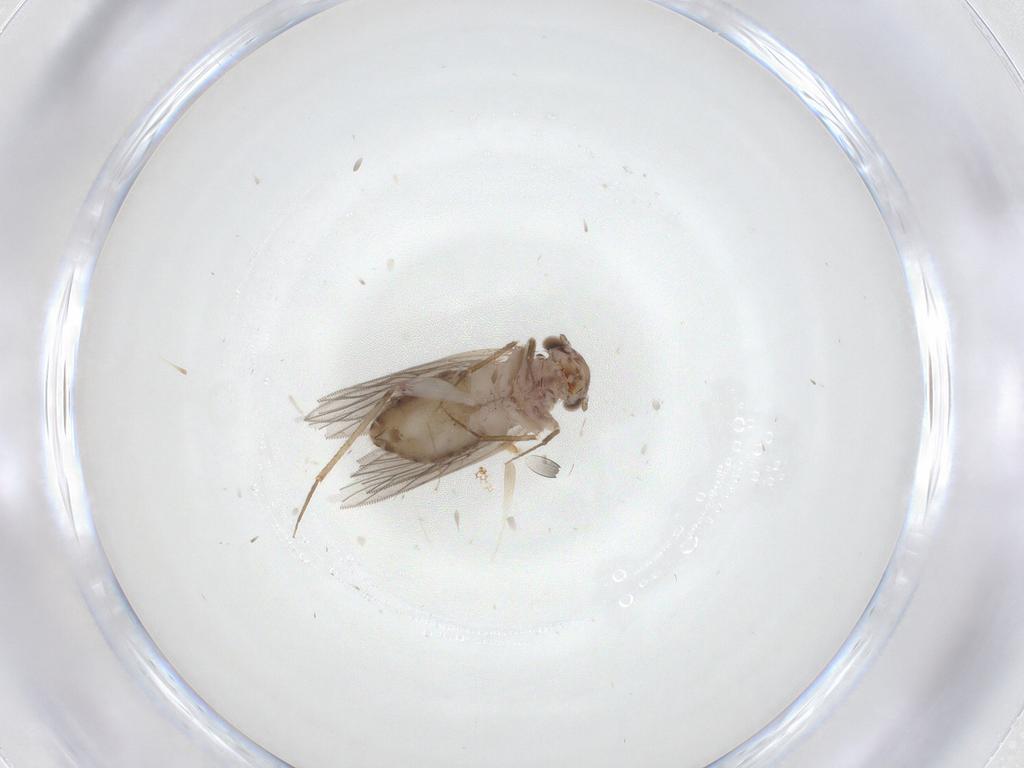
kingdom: Animalia
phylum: Arthropoda
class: Insecta
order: Psocodea
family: Lepidopsocidae
